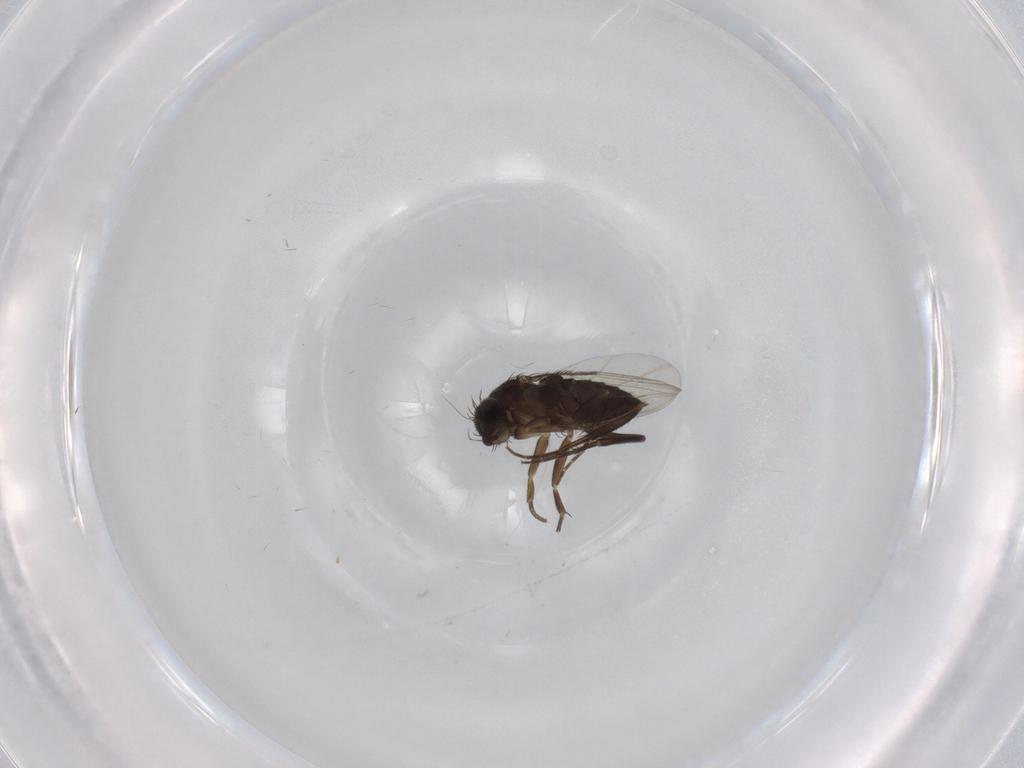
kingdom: Animalia
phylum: Arthropoda
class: Insecta
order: Diptera
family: Phoridae
